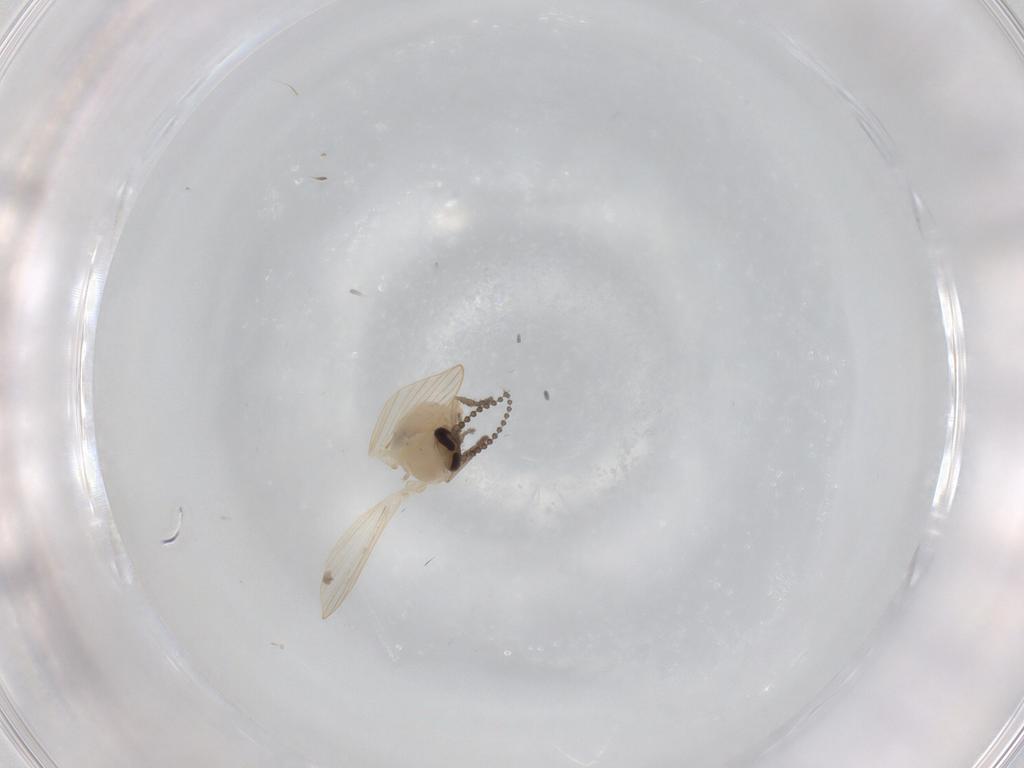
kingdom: Animalia
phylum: Arthropoda
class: Insecta
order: Diptera
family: Psychodidae
